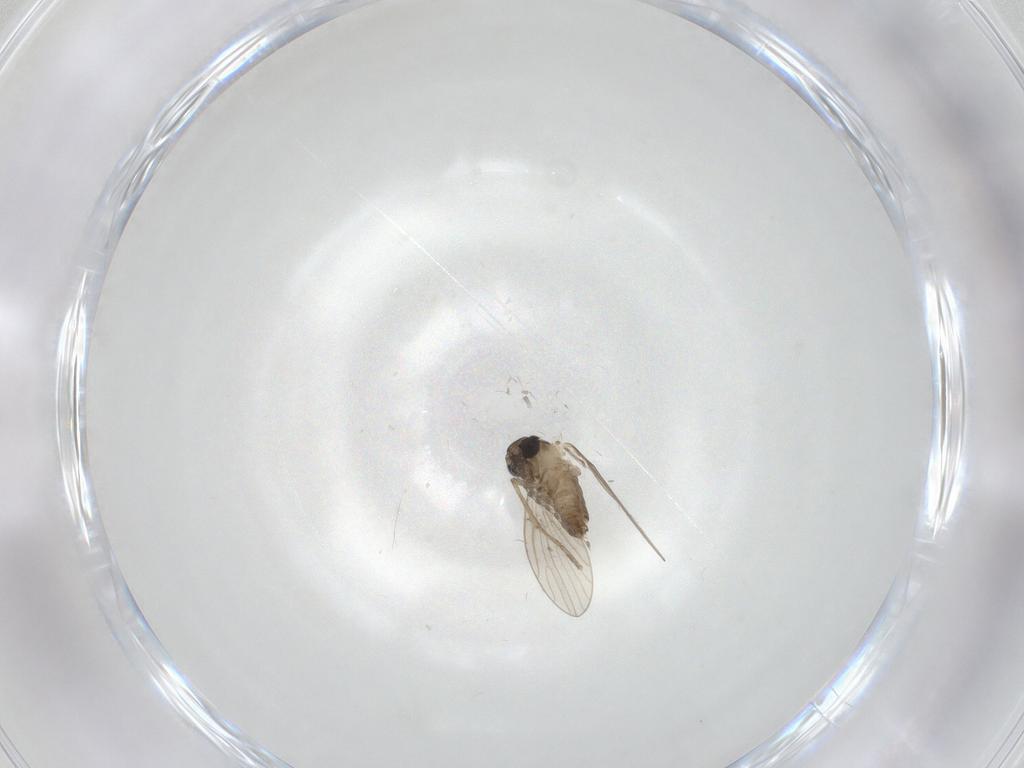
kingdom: Animalia
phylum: Arthropoda
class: Insecta
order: Diptera
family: Psychodidae
